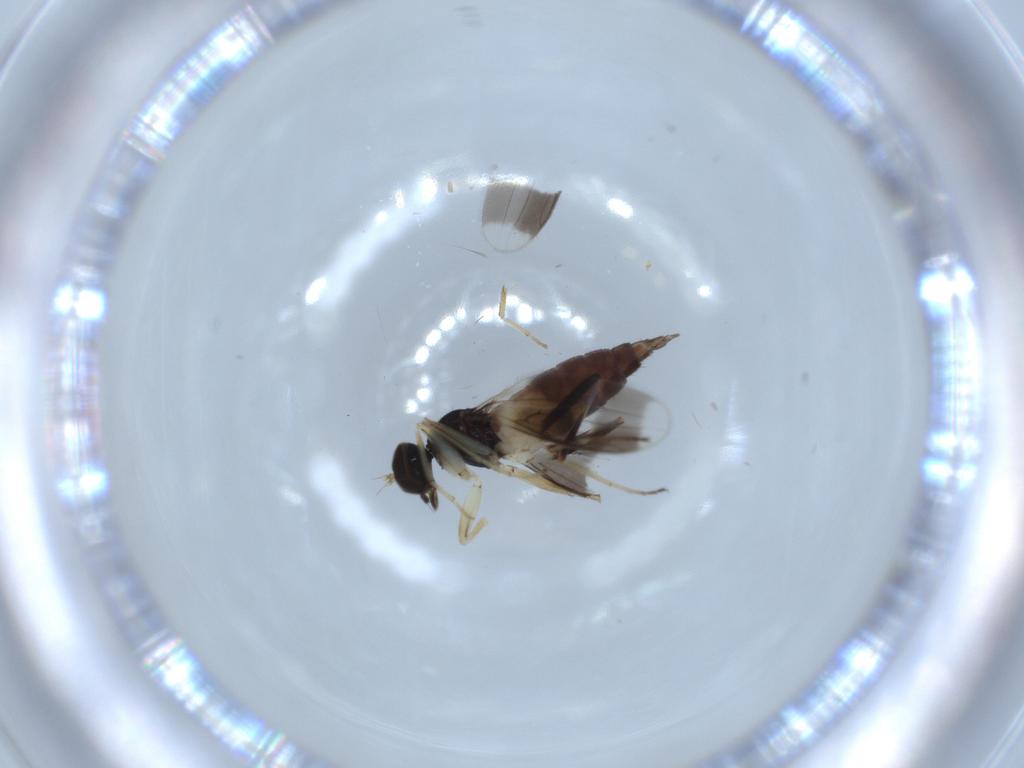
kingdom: Animalia
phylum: Arthropoda
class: Insecta
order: Diptera
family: Hybotidae
